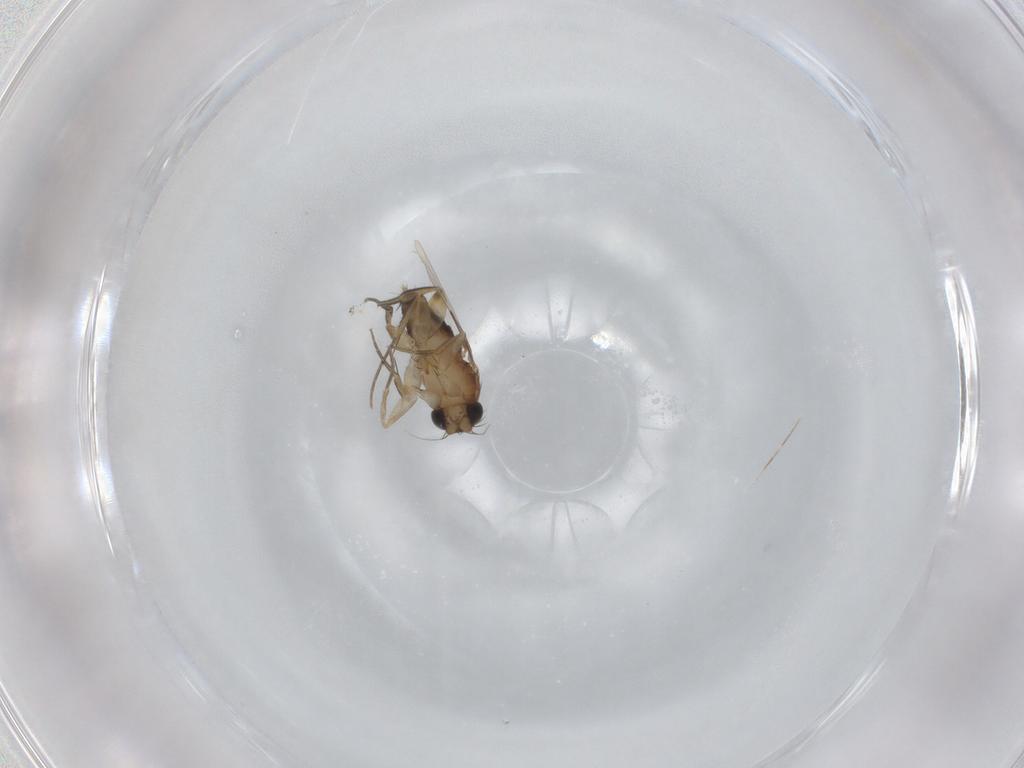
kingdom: Animalia
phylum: Arthropoda
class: Insecta
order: Diptera
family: Phoridae
